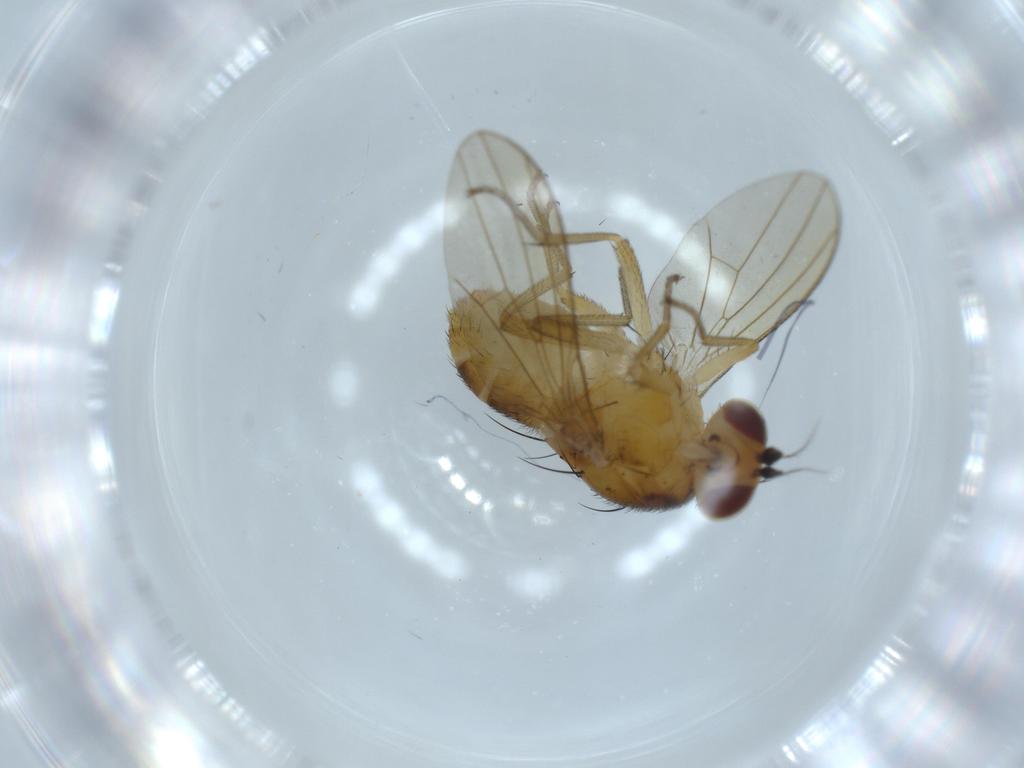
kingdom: Animalia
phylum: Arthropoda
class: Insecta
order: Diptera
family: Lauxaniidae
